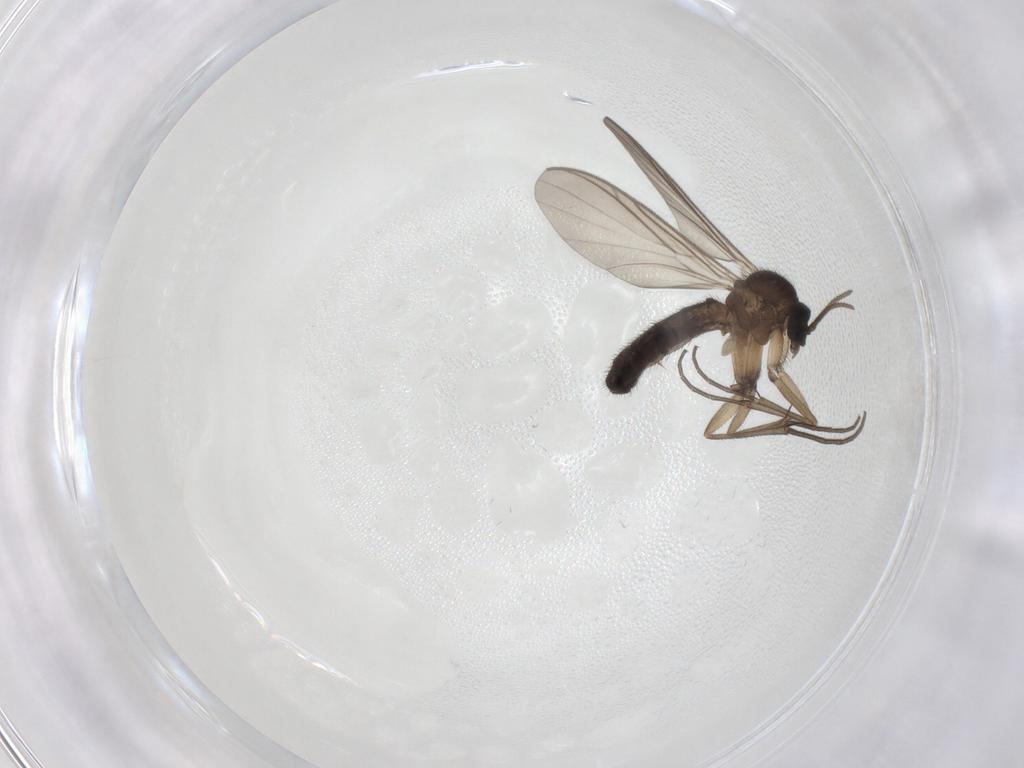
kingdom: Animalia
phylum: Arthropoda
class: Insecta
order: Diptera
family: Keroplatidae
